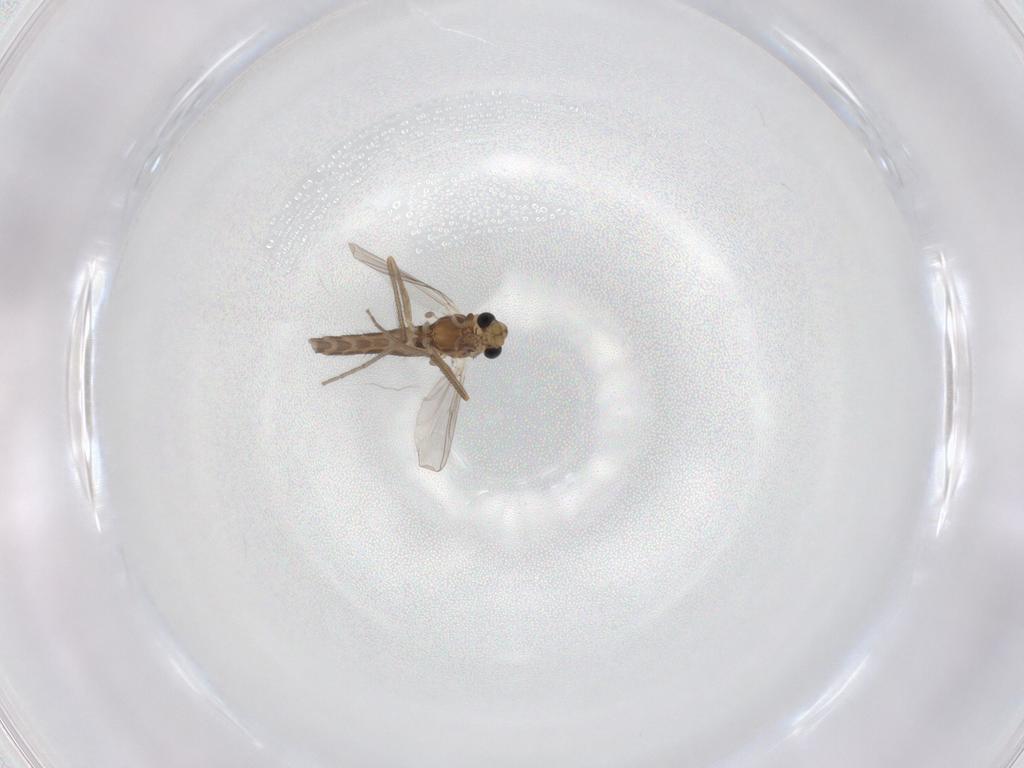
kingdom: Animalia
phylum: Arthropoda
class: Insecta
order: Diptera
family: Chironomidae
